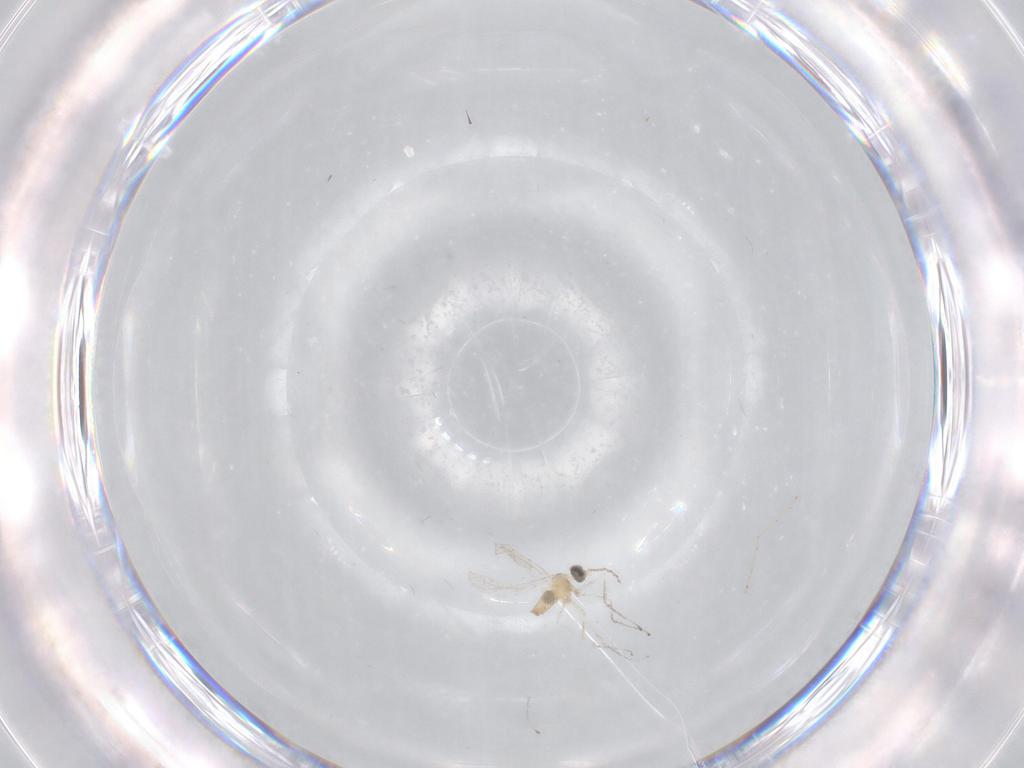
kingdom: Animalia
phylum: Arthropoda
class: Insecta
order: Diptera
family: Cecidomyiidae
